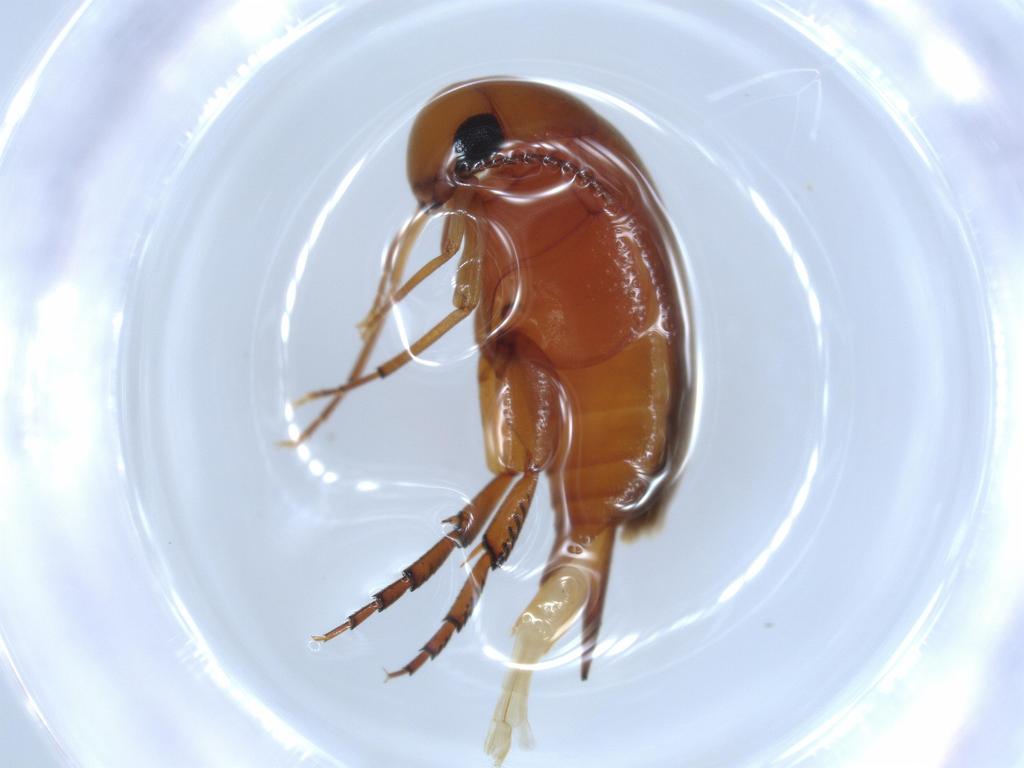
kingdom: Animalia
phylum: Arthropoda
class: Insecta
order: Coleoptera
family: Mordellidae
